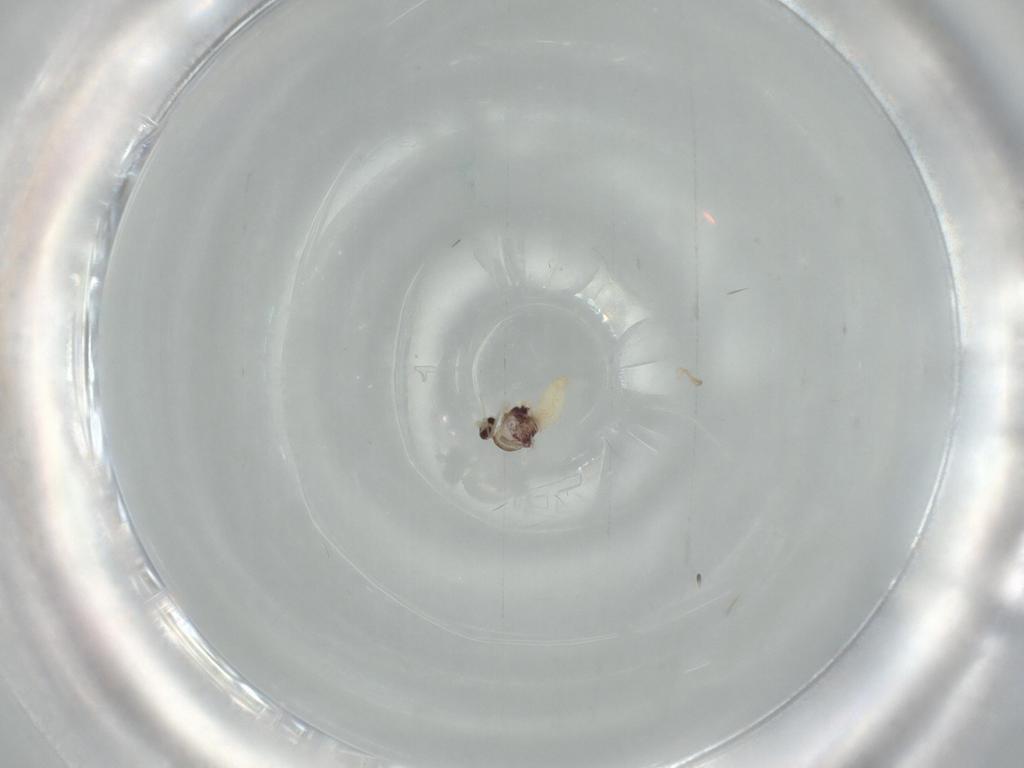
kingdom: Animalia
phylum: Arthropoda
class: Insecta
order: Diptera
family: Cecidomyiidae
